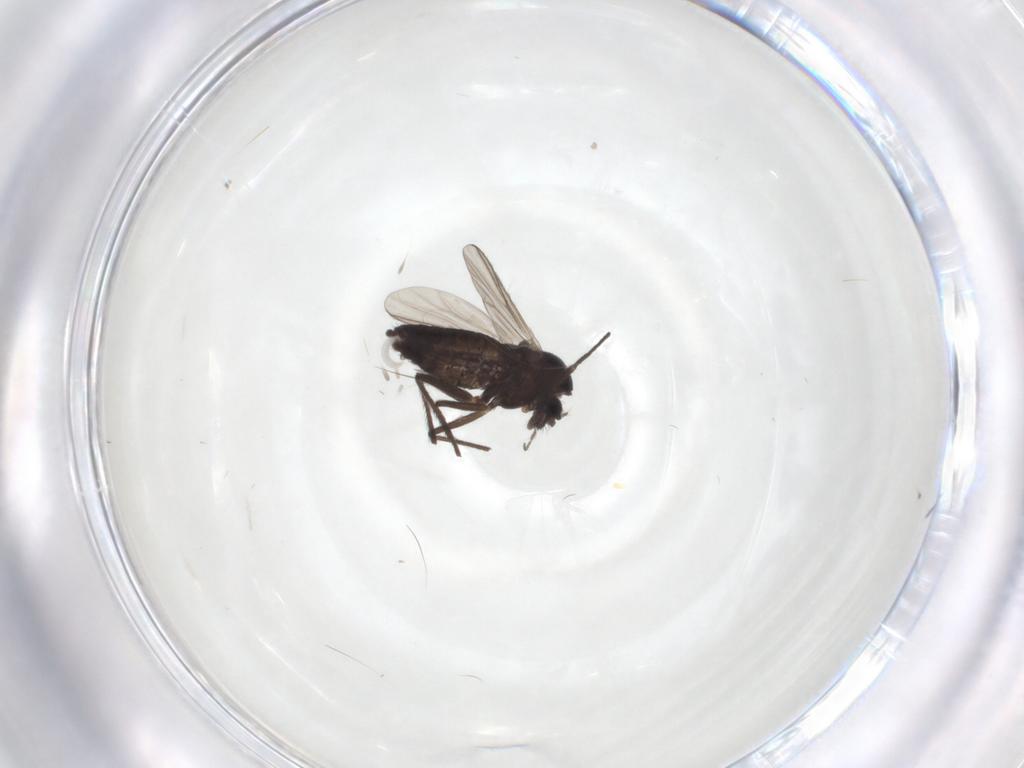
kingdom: Animalia
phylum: Arthropoda
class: Insecta
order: Diptera
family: Chironomidae
